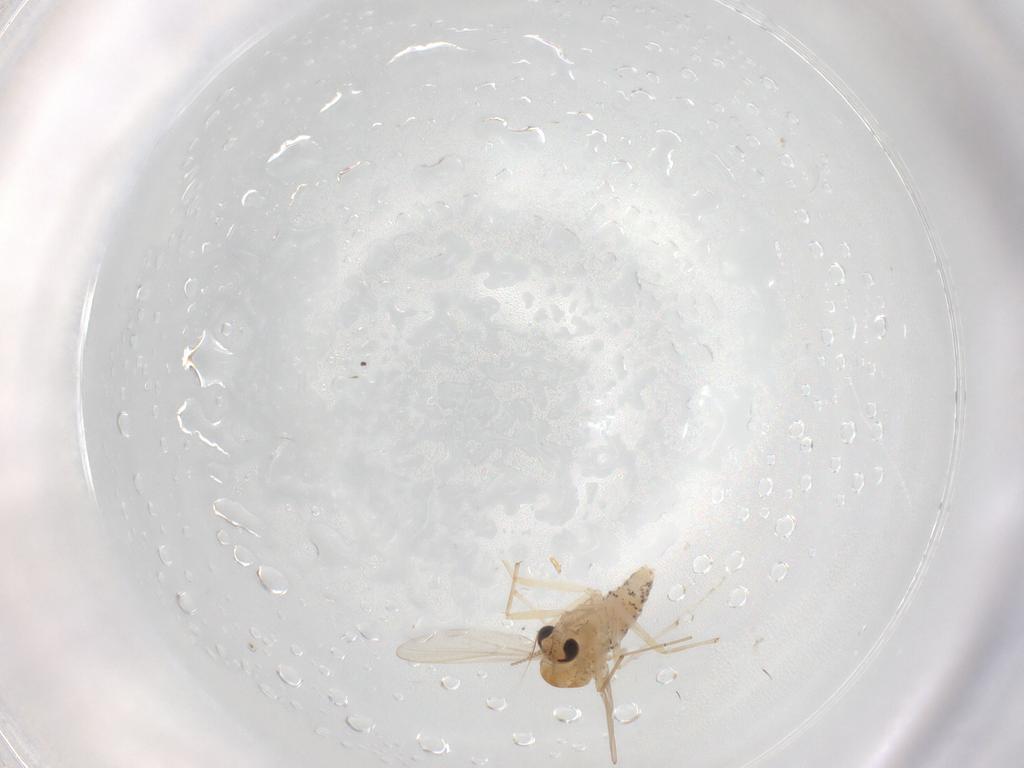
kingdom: Animalia
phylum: Arthropoda
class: Insecta
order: Diptera
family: Chironomidae
